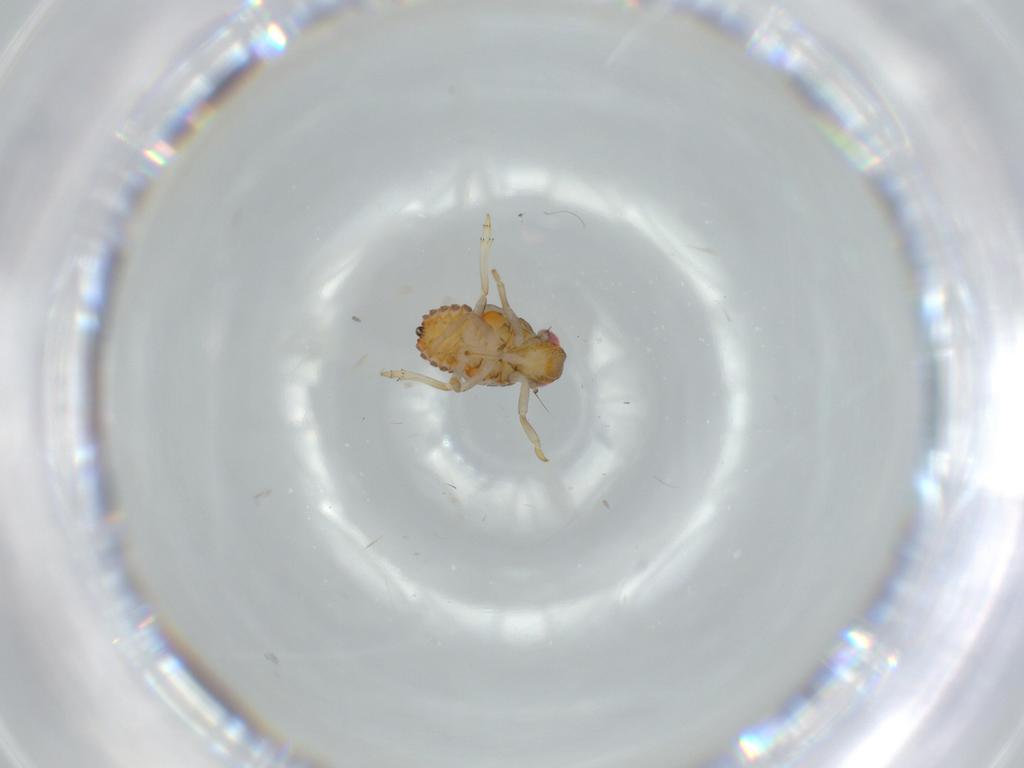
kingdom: Animalia
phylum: Arthropoda
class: Insecta
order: Hemiptera
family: Issidae
